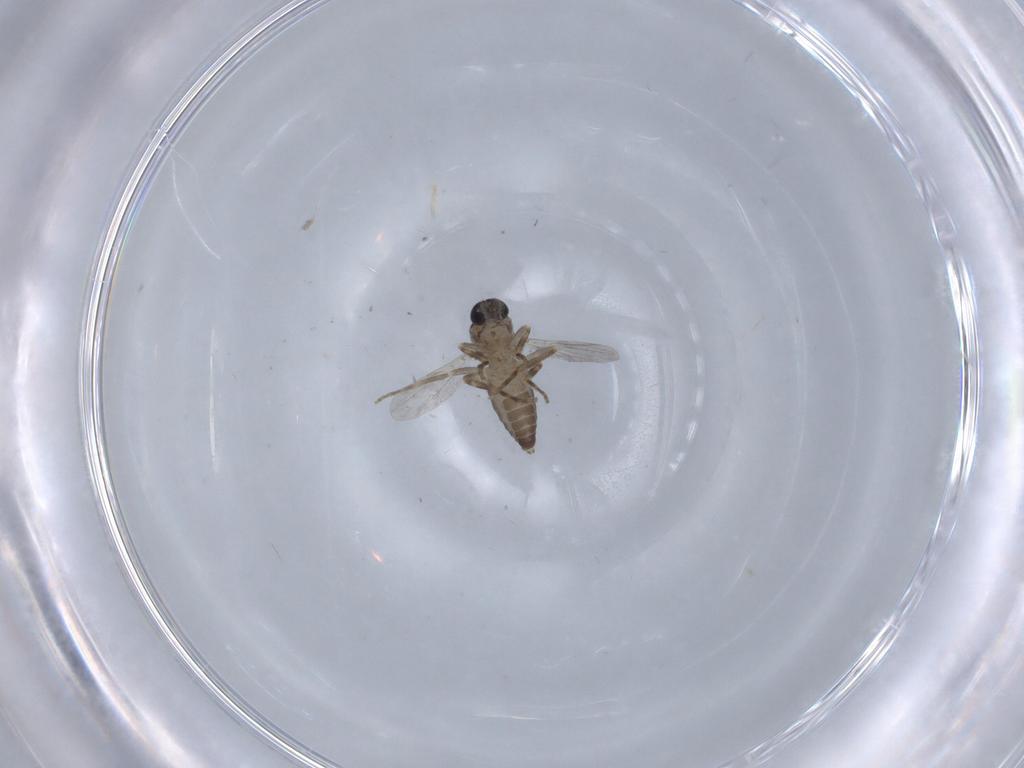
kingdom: Animalia
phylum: Arthropoda
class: Insecta
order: Diptera
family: Ceratopogonidae
